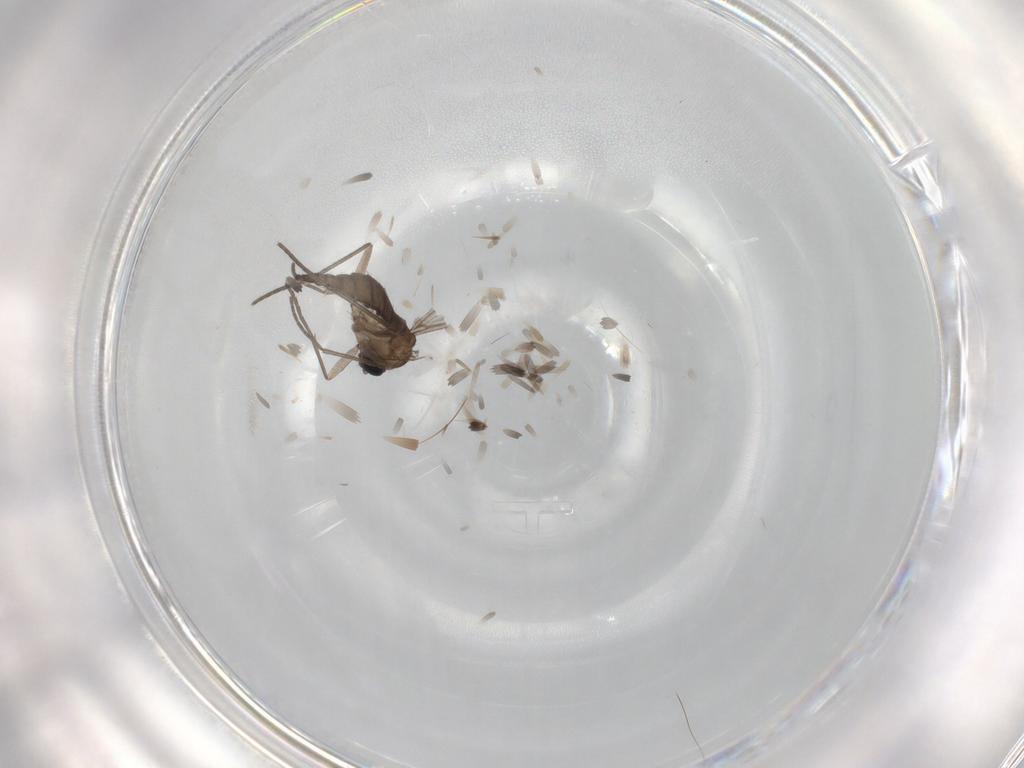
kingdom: Animalia
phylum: Arthropoda
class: Insecta
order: Diptera
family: Sciaridae
